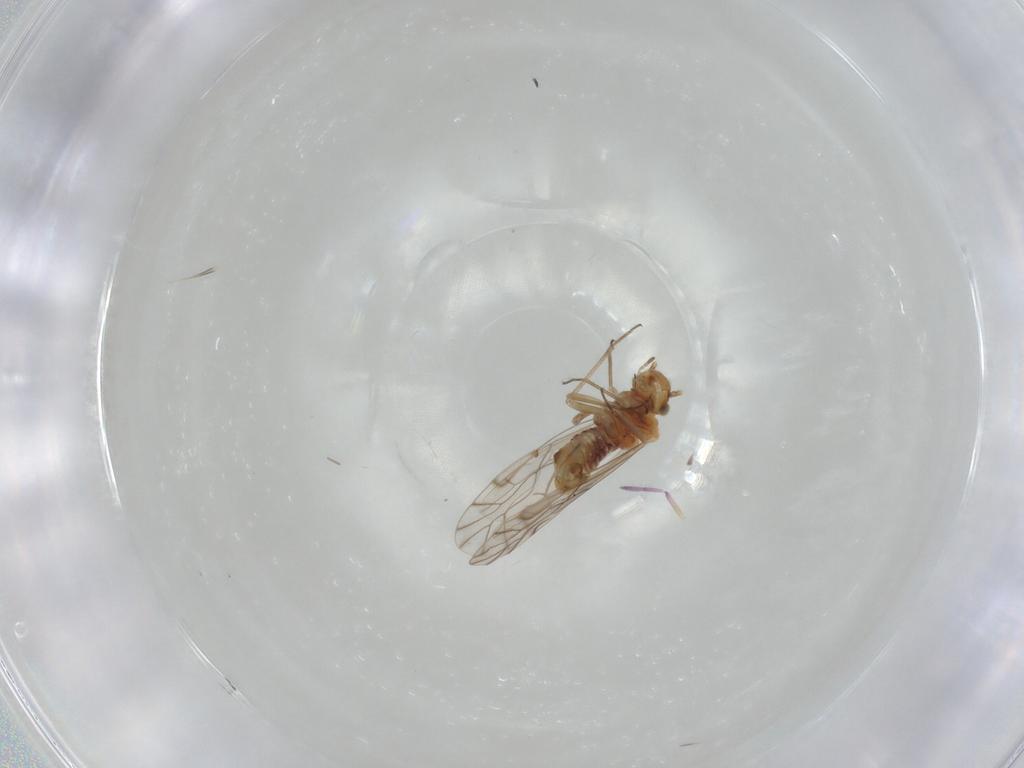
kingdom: Animalia
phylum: Arthropoda
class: Insecta
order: Psocodea
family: Lachesillidae
